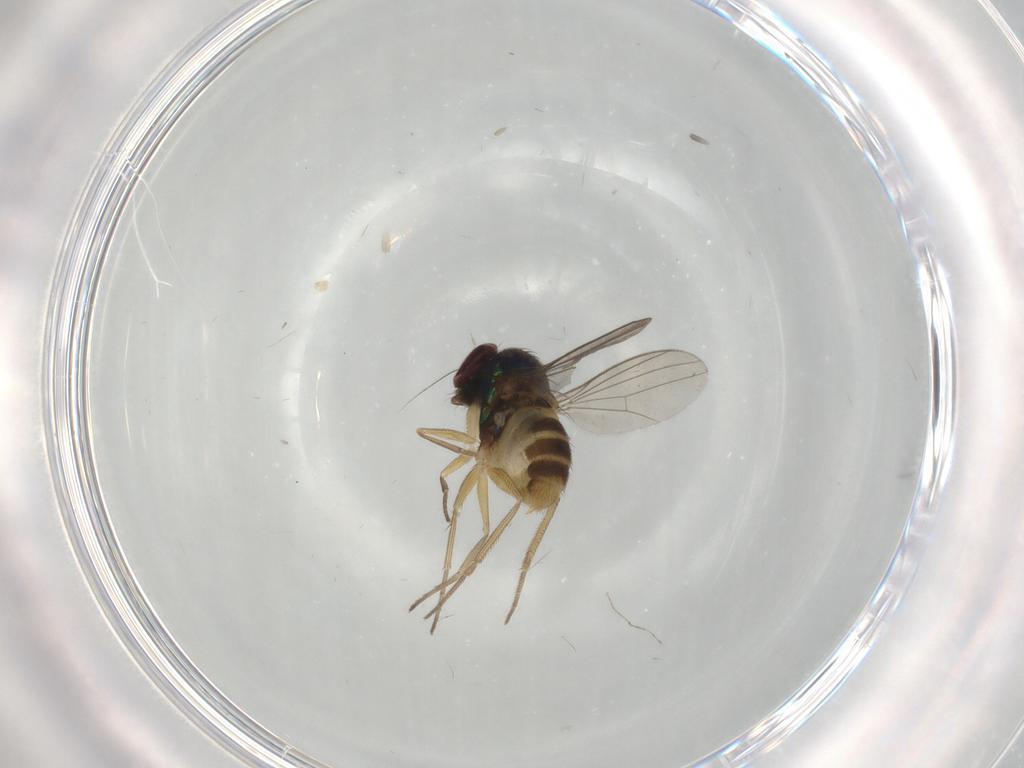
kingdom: Animalia
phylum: Arthropoda
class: Insecta
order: Diptera
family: Dolichopodidae
